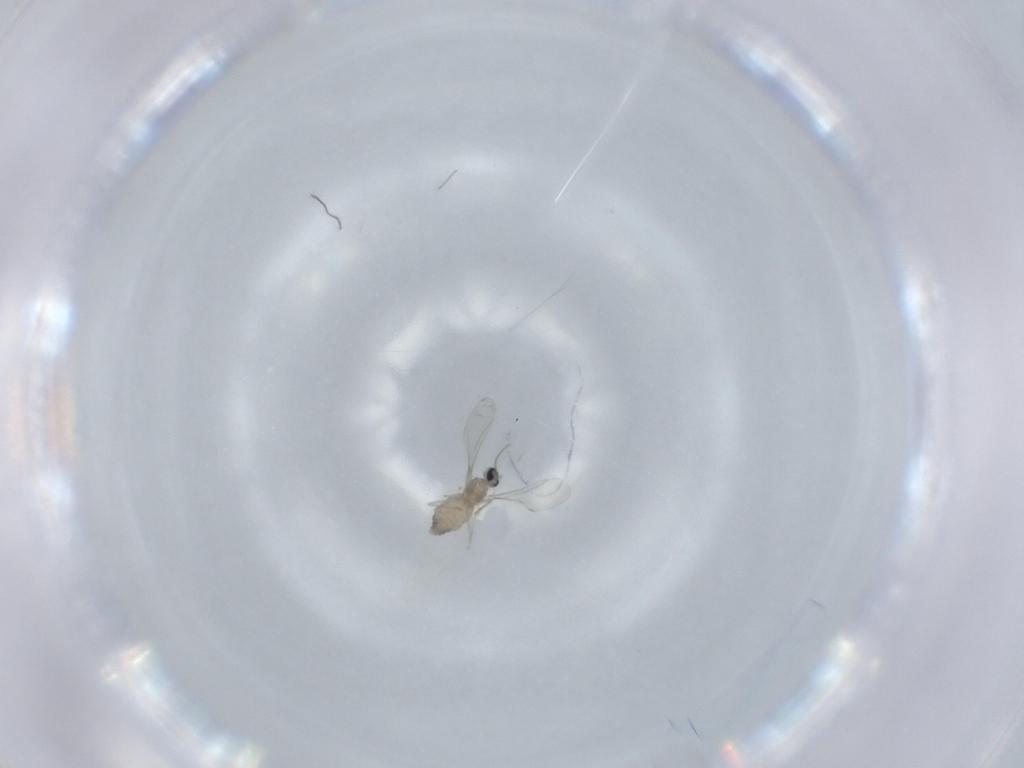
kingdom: Animalia
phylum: Arthropoda
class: Insecta
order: Diptera
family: Cecidomyiidae
